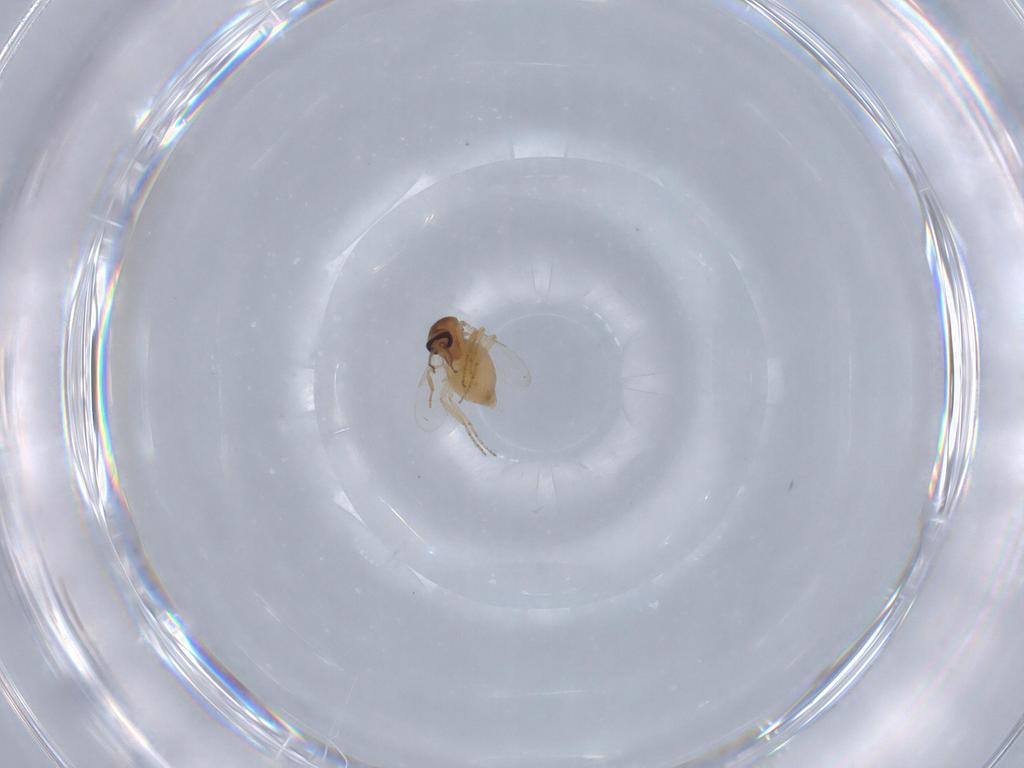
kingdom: Animalia
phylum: Arthropoda
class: Insecta
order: Diptera
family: Ceratopogonidae
